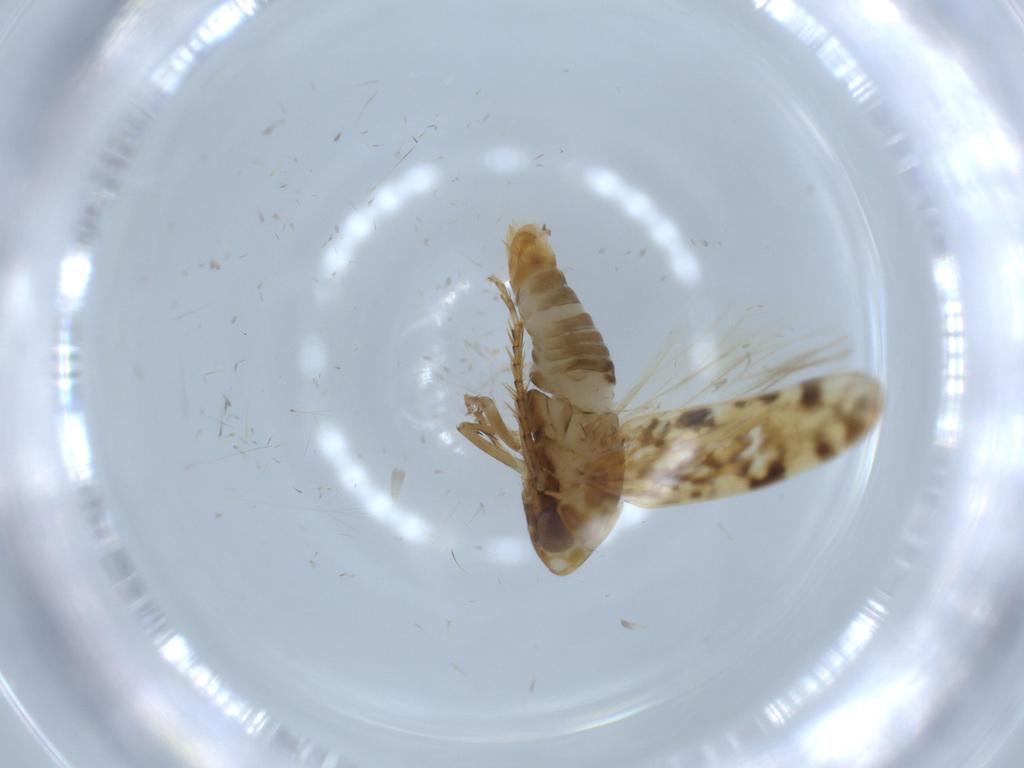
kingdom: Animalia
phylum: Arthropoda
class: Insecta
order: Hemiptera
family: Cicadellidae
